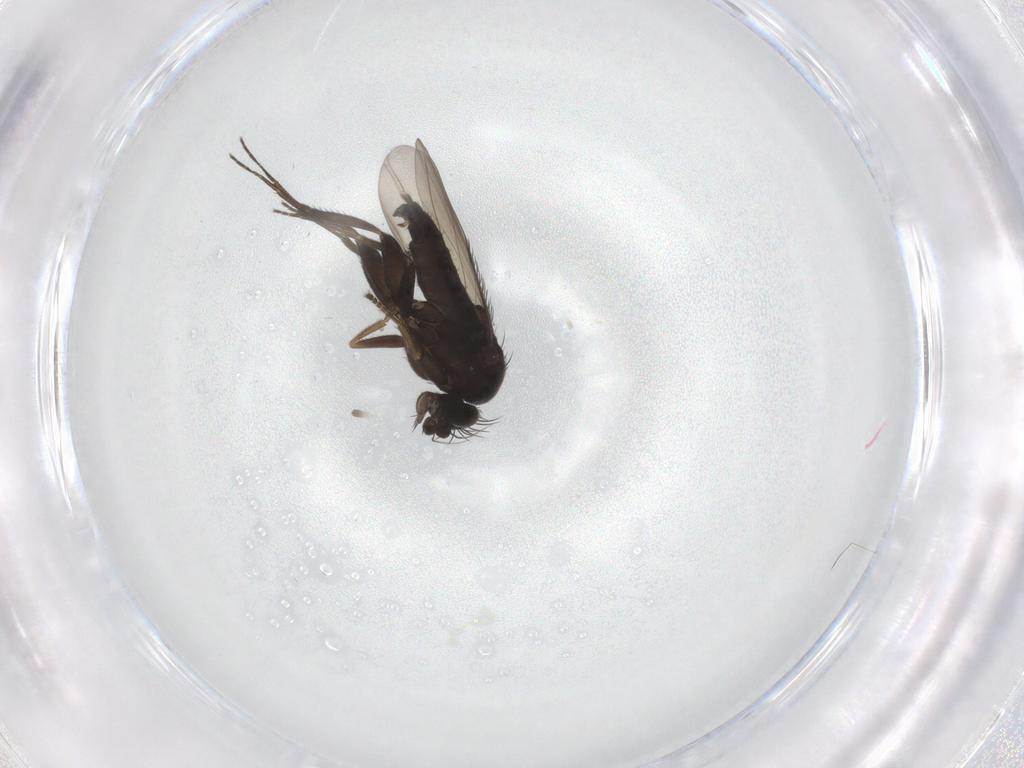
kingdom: Animalia
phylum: Arthropoda
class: Insecta
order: Diptera
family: Phoridae
